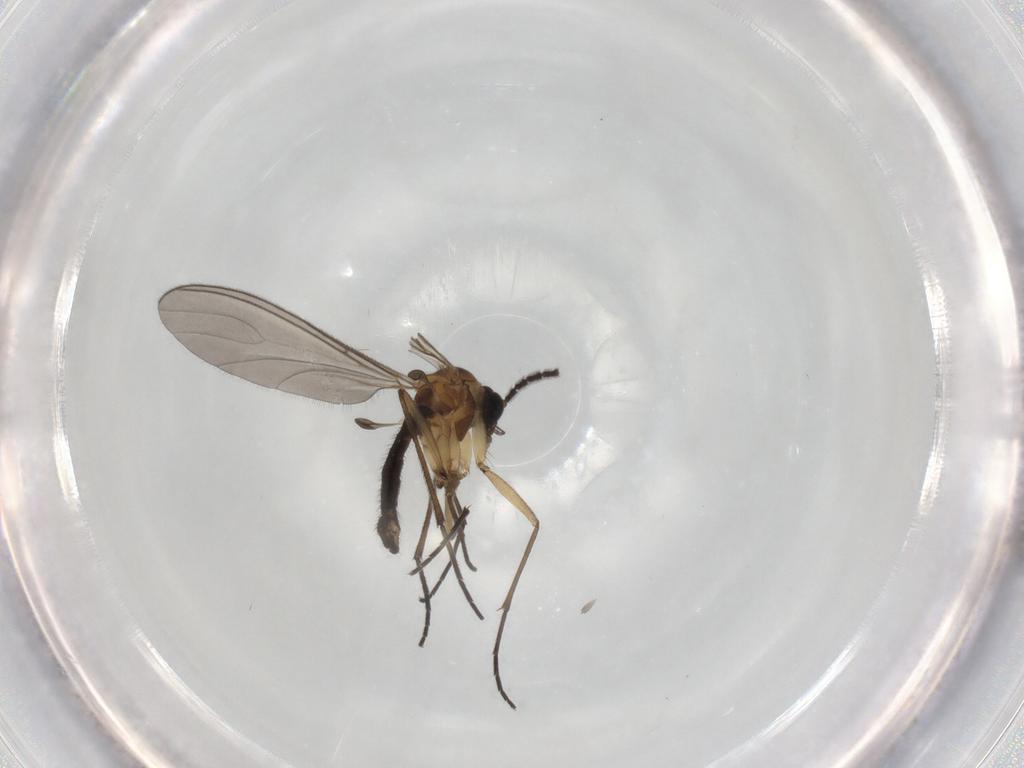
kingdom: Animalia
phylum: Arthropoda
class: Insecta
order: Diptera
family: Sciaridae
